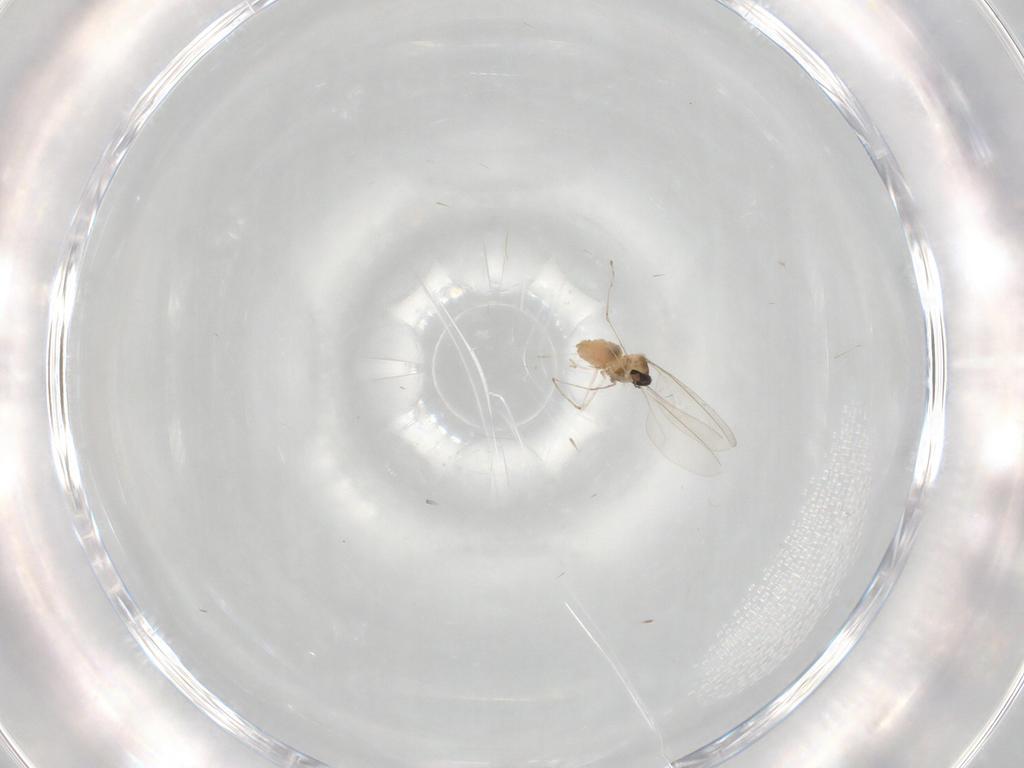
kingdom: Animalia
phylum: Arthropoda
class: Insecta
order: Diptera
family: Cecidomyiidae
